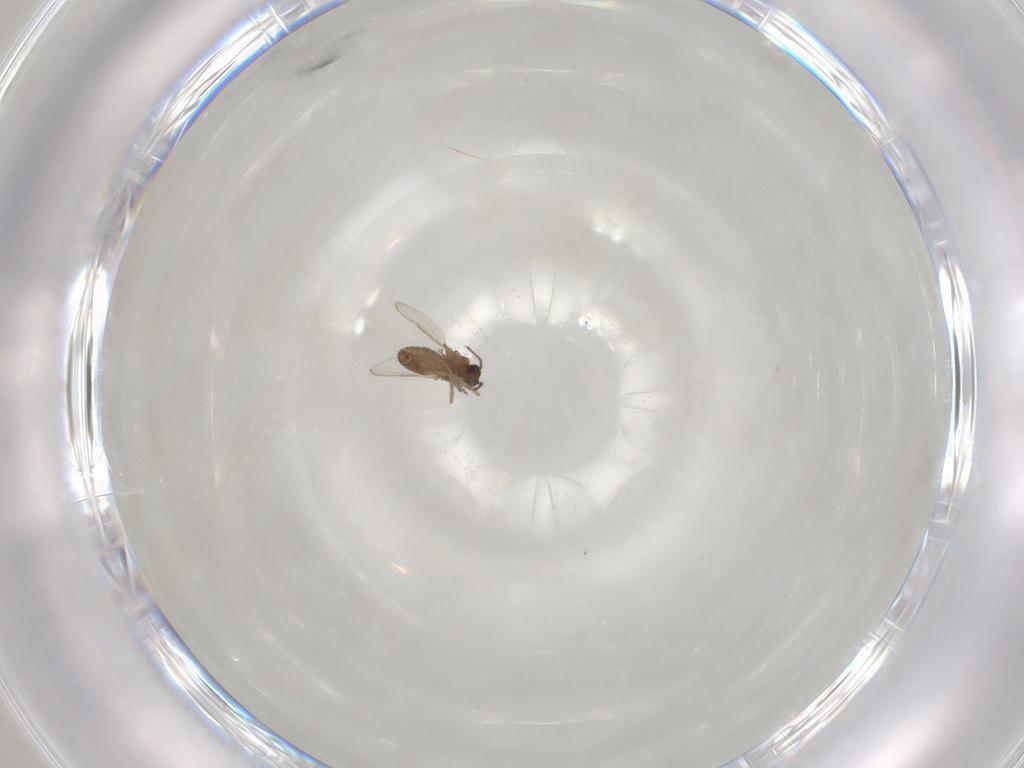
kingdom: Animalia
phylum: Arthropoda
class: Insecta
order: Diptera
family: Ceratopogonidae
